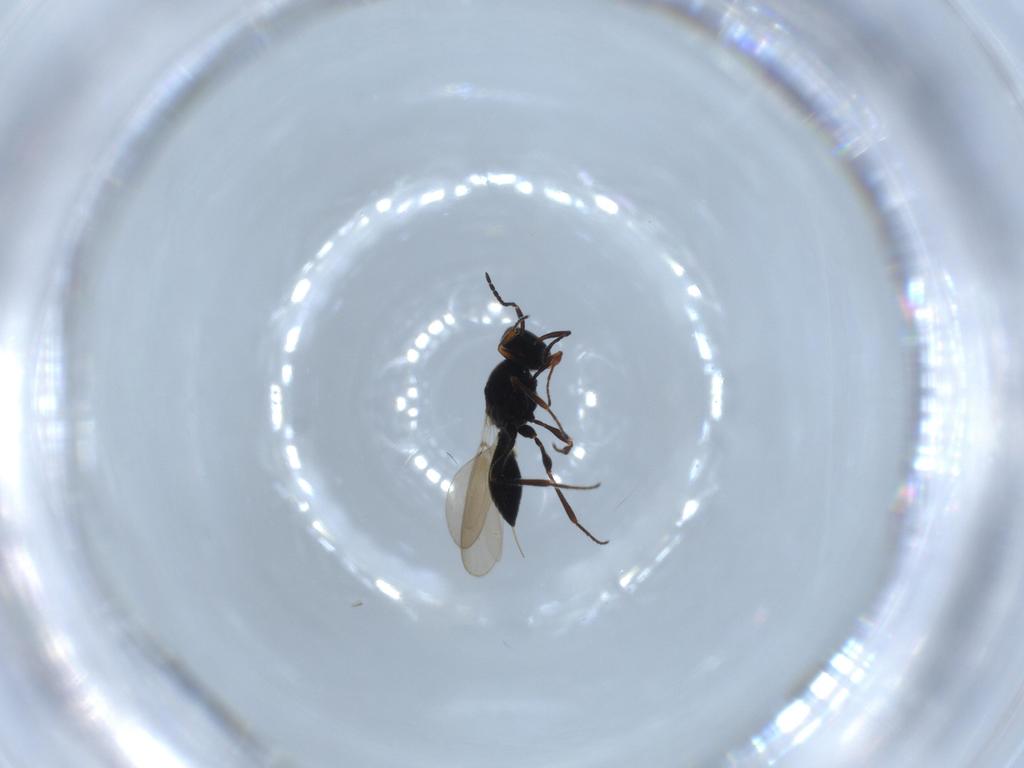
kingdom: Animalia
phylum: Arthropoda
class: Insecta
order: Hymenoptera
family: Platygastridae
